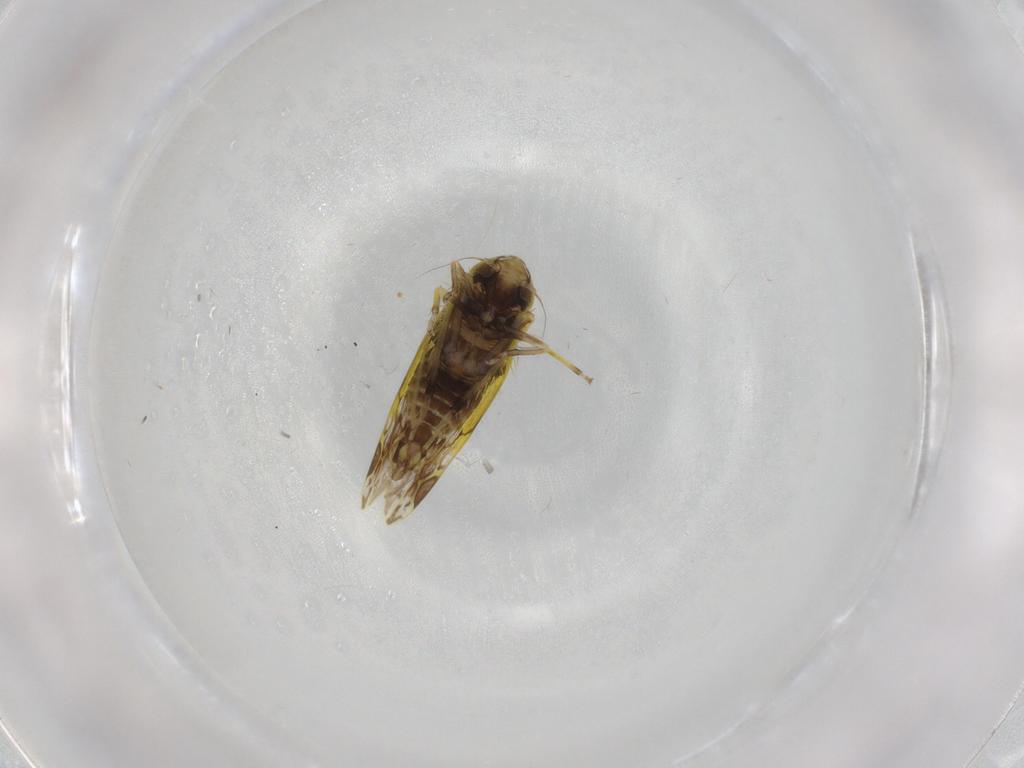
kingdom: Animalia
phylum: Arthropoda
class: Insecta
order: Hemiptera
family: Cicadellidae
